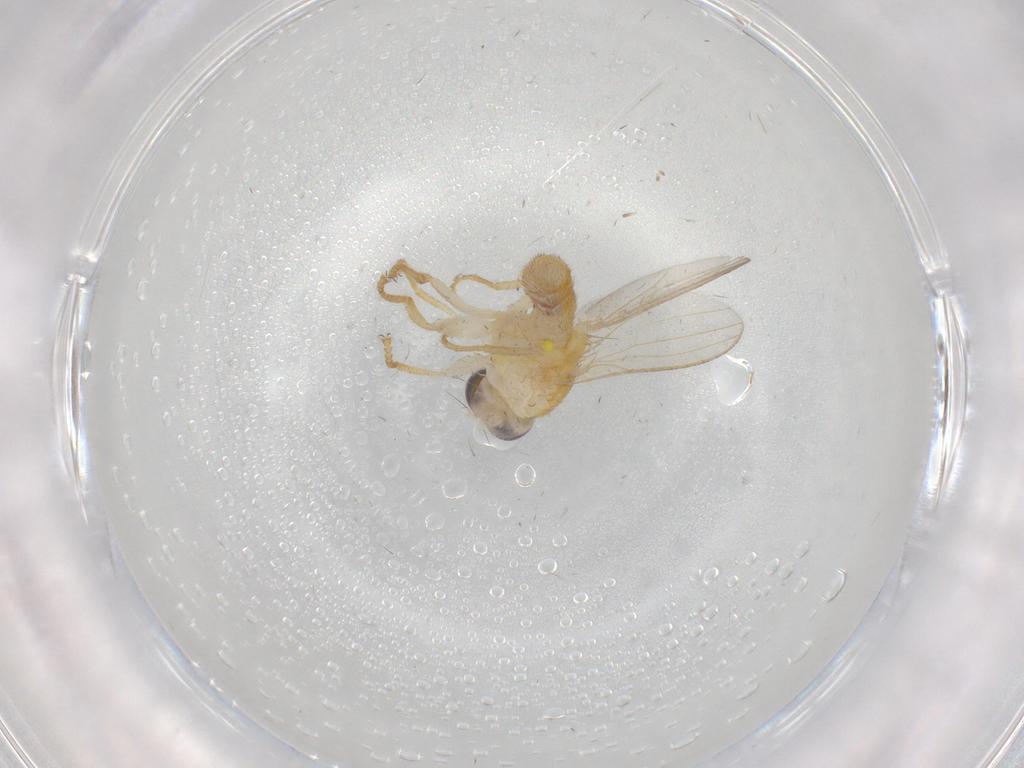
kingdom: Animalia
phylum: Arthropoda
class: Insecta
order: Diptera
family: Chyromyidae
